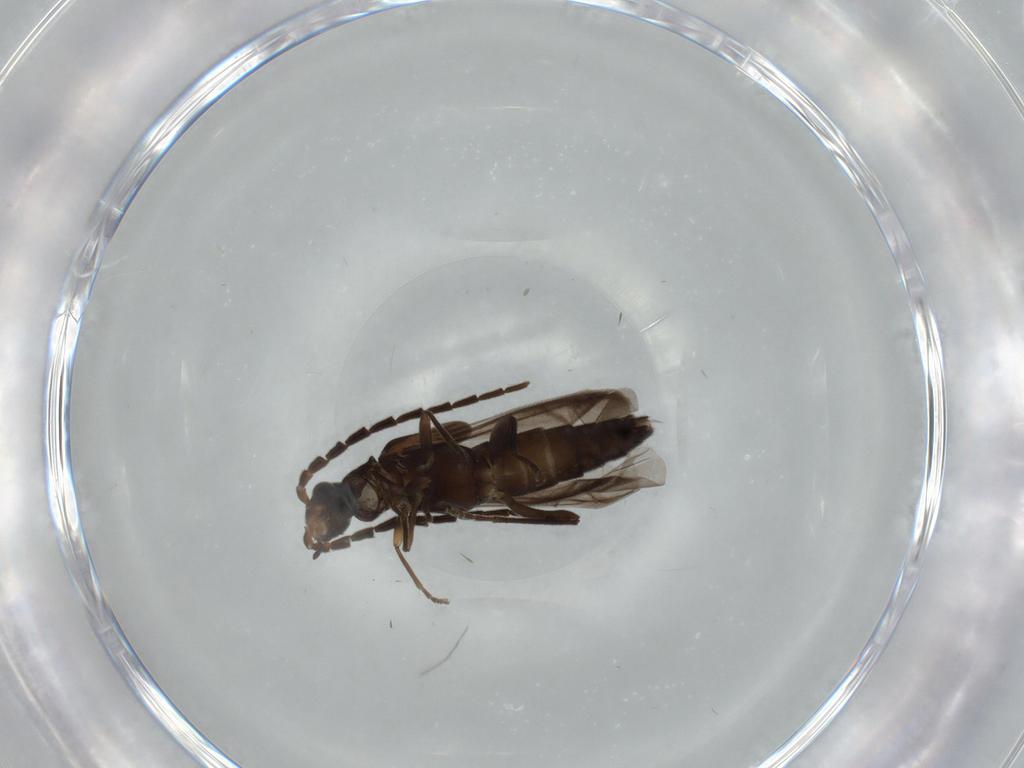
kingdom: Animalia
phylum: Arthropoda
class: Insecta
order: Coleoptera
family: Cantharidae
